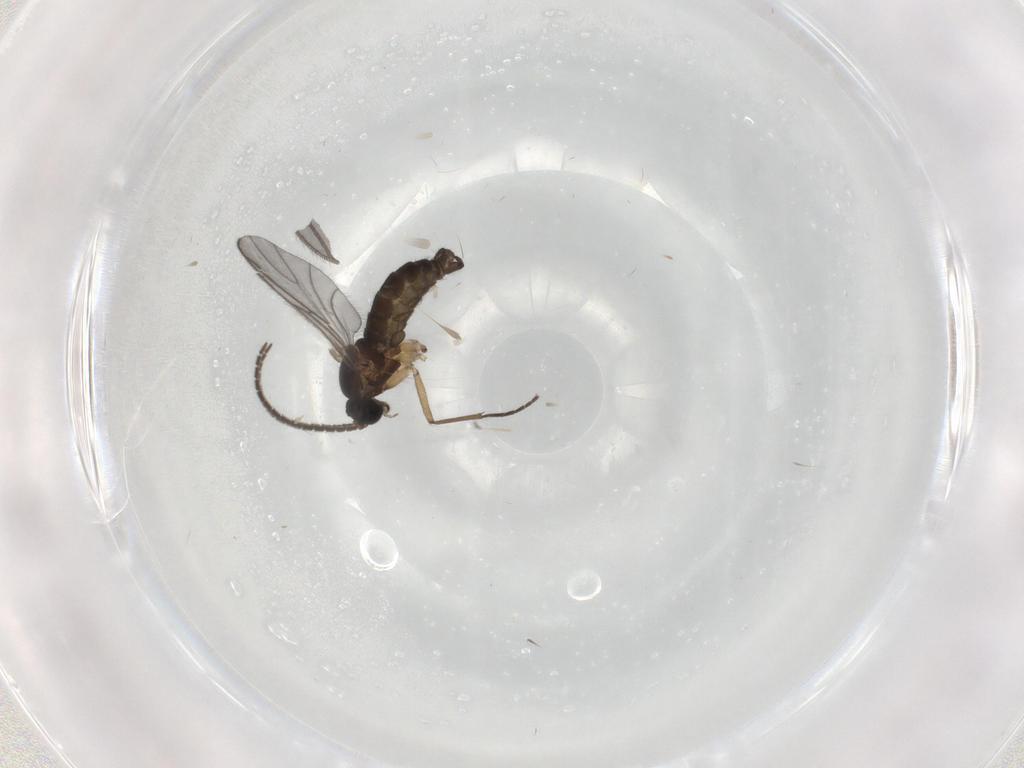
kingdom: Animalia
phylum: Arthropoda
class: Insecta
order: Diptera
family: Sciaridae
